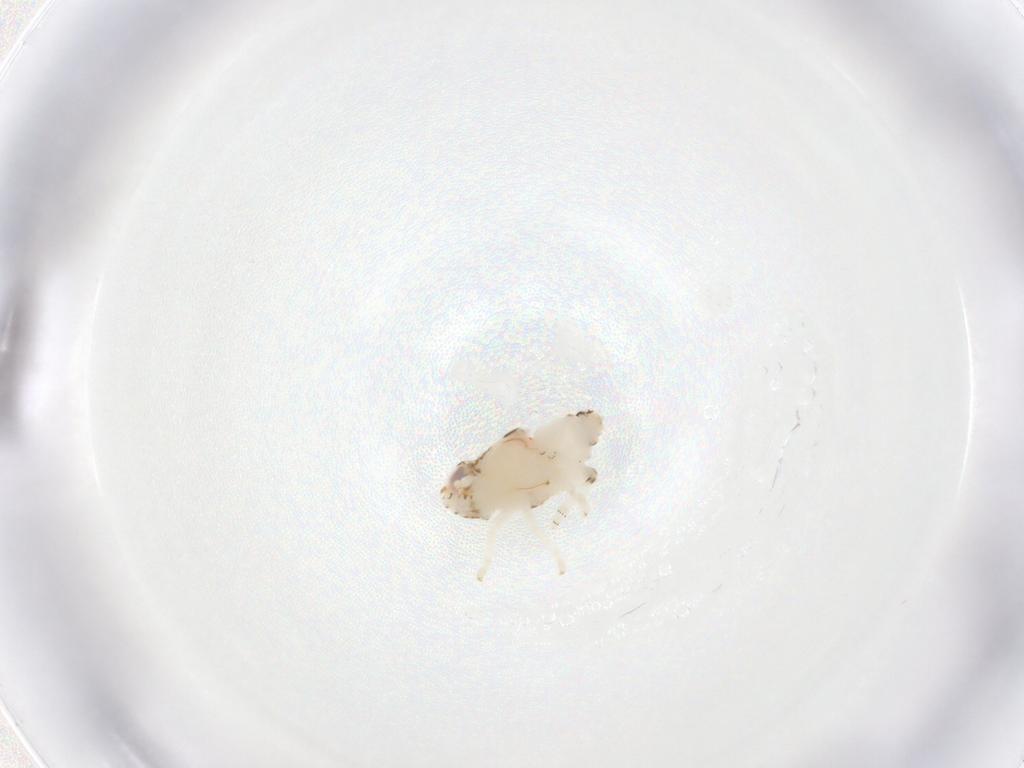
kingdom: Animalia
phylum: Arthropoda
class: Insecta
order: Hemiptera
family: Nogodinidae
